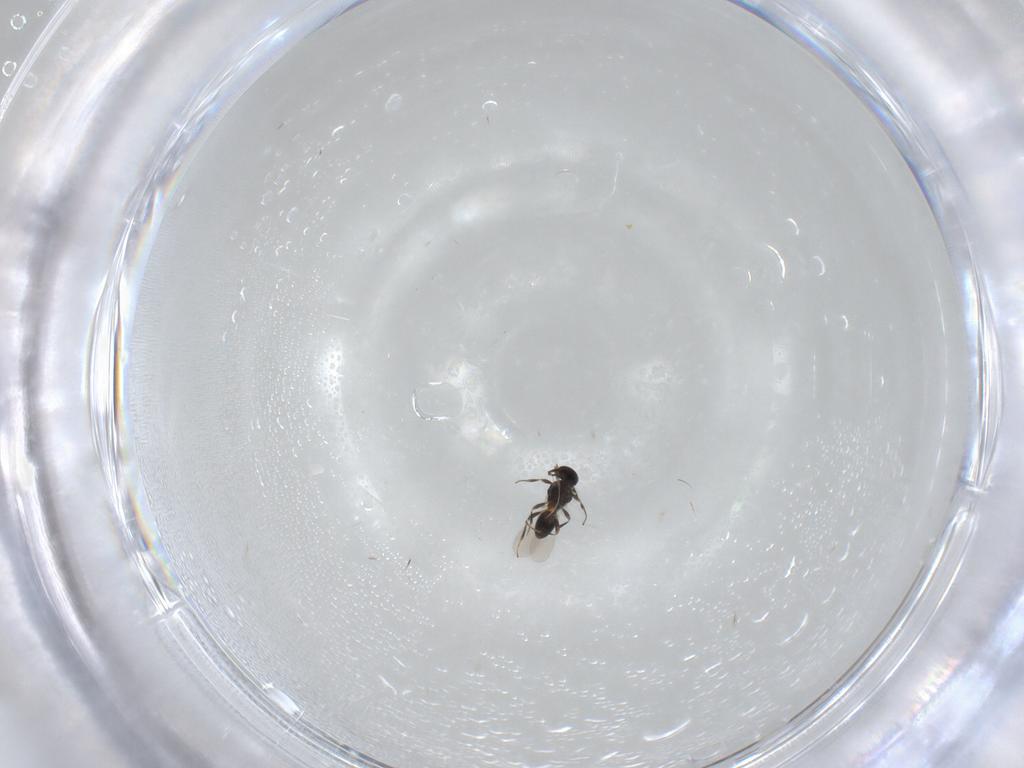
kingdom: Animalia
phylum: Arthropoda
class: Insecta
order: Hymenoptera
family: Platygastridae
